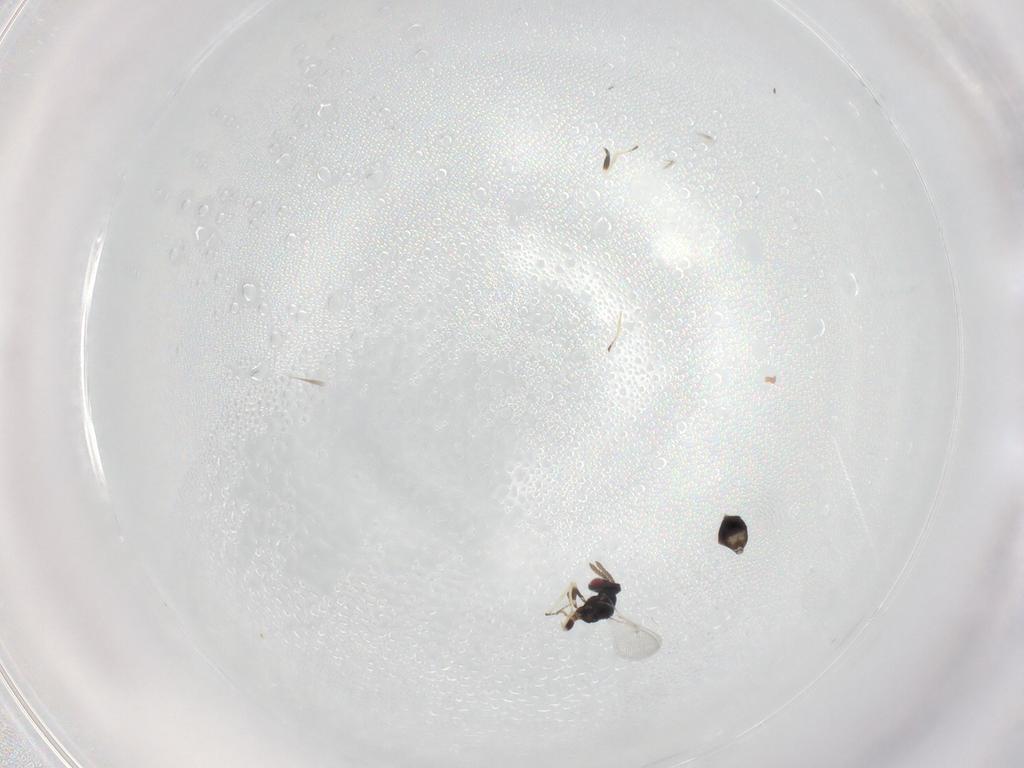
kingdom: Animalia
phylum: Arthropoda
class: Insecta
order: Hymenoptera
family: Eulophidae
